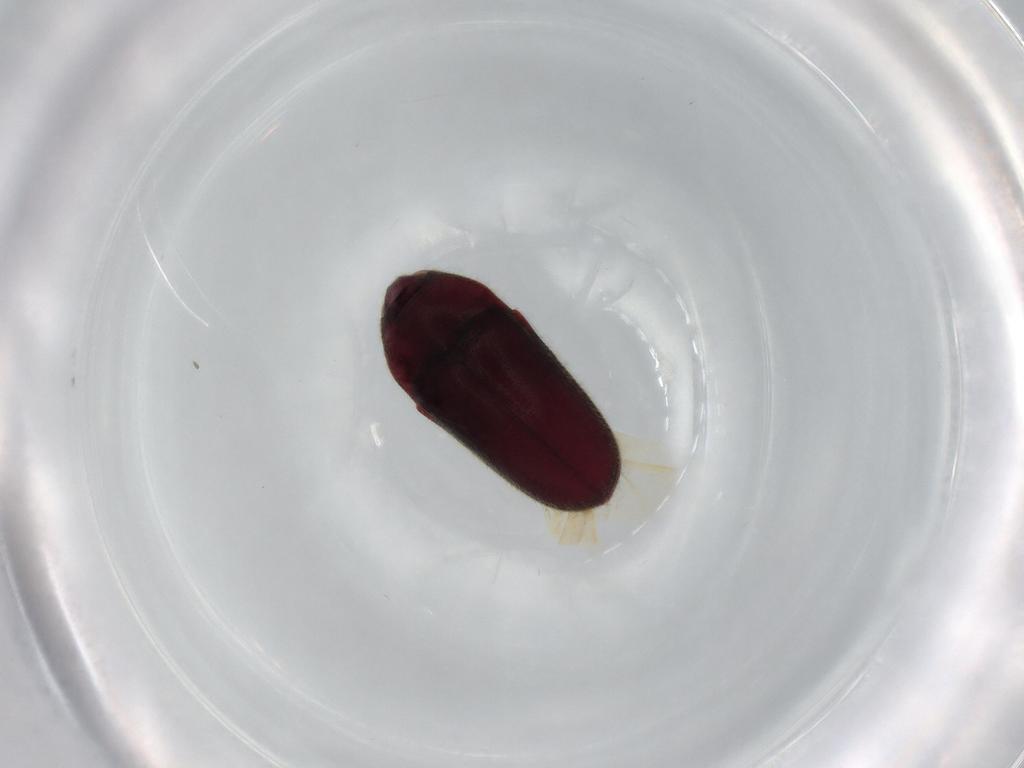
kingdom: Animalia
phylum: Arthropoda
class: Insecta
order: Coleoptera
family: Throscidae
